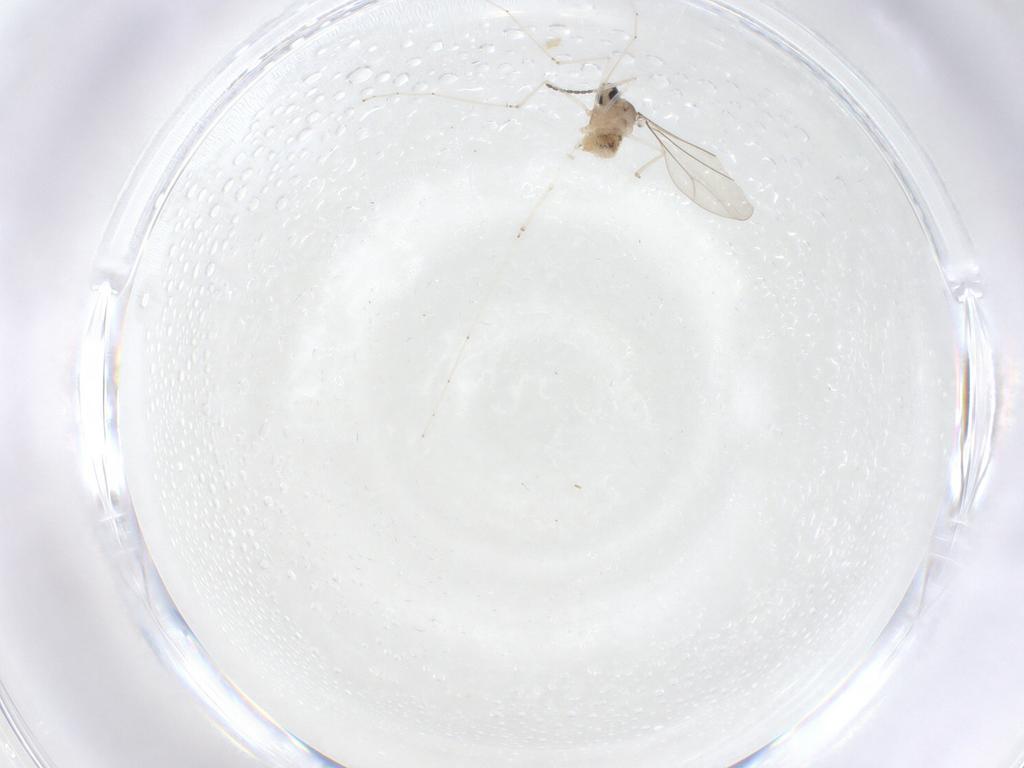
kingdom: Animalia
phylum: Arthropoda
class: Insecta
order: Diptera
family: Cecidomyiidae
